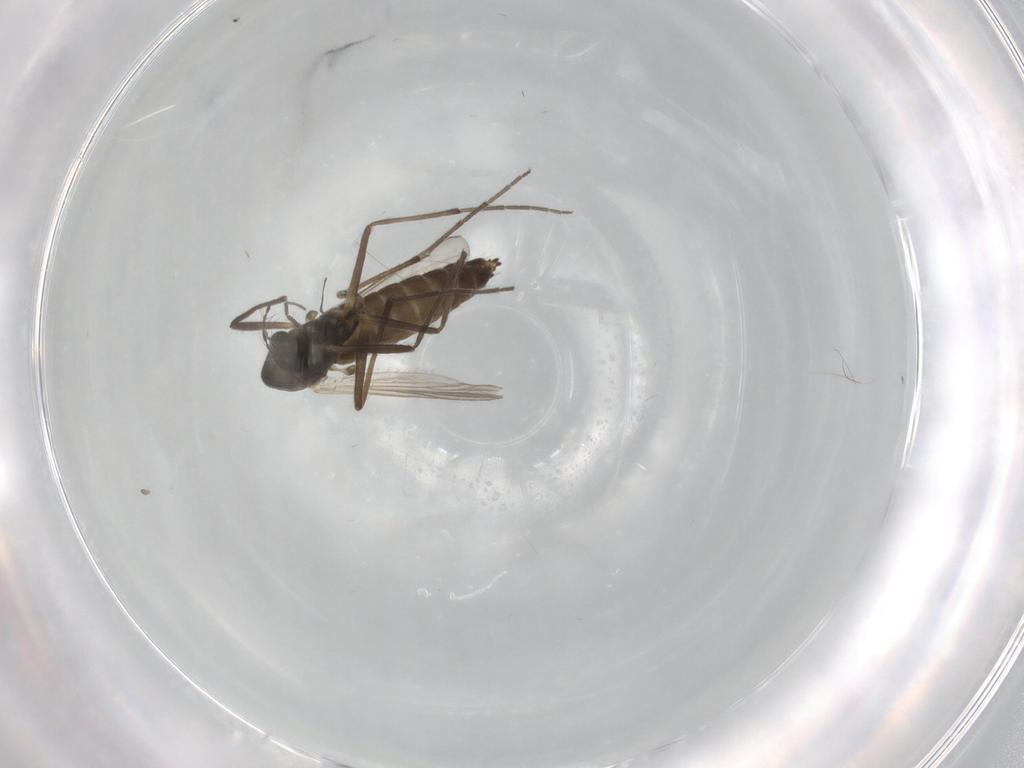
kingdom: Animalia
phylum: Arthropoda
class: Insecta
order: Diptera
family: Chironomidae
